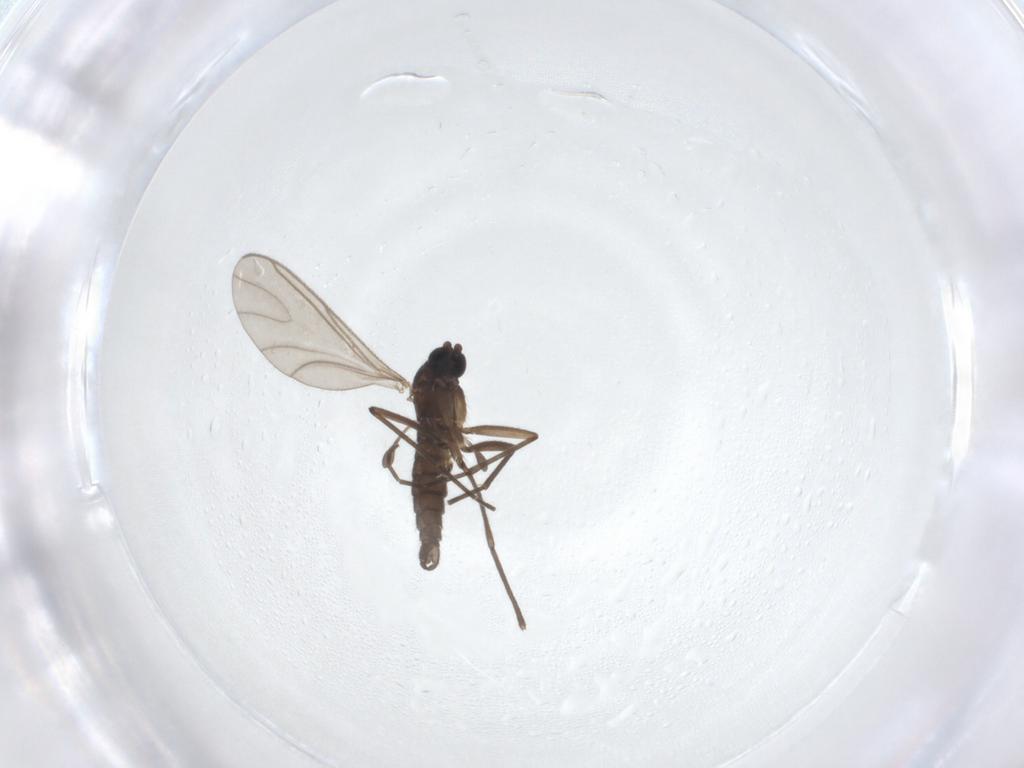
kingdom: Animalia
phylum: Arthropoda
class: Insecta
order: Diptera
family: Sciaridae
